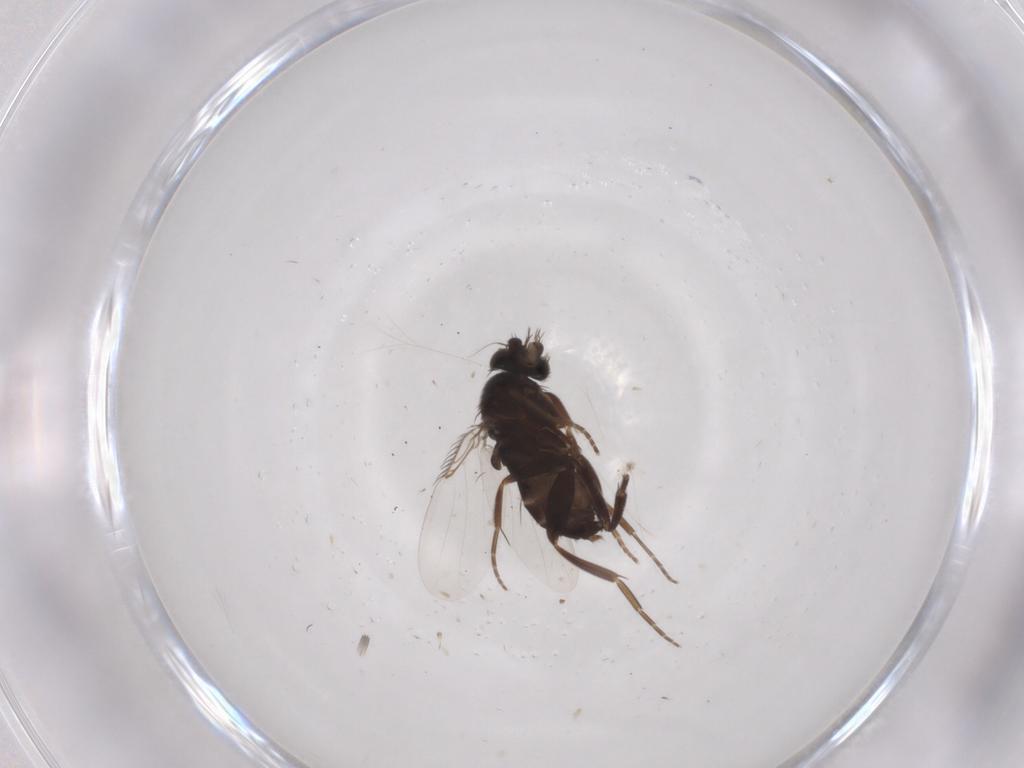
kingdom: Animalia
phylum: Arthropoda
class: Insecta
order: Diptera
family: Phoridae
